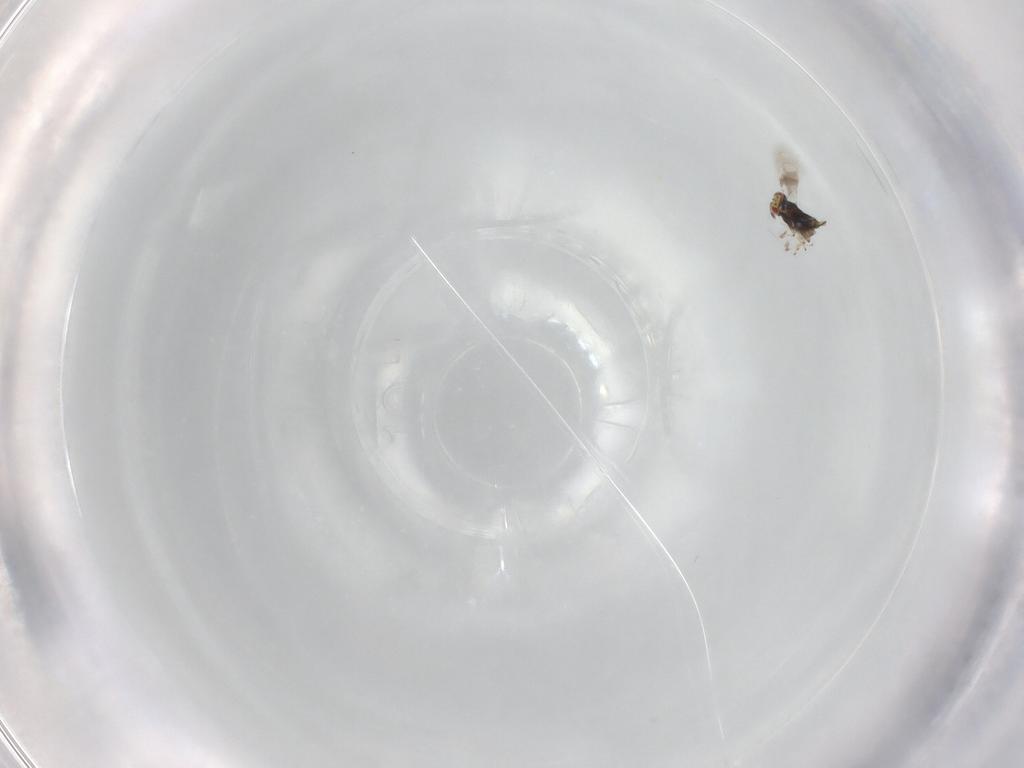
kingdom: Animalia
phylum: Arthropoda
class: Insecta
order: Hymenoptera
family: Azotidae
